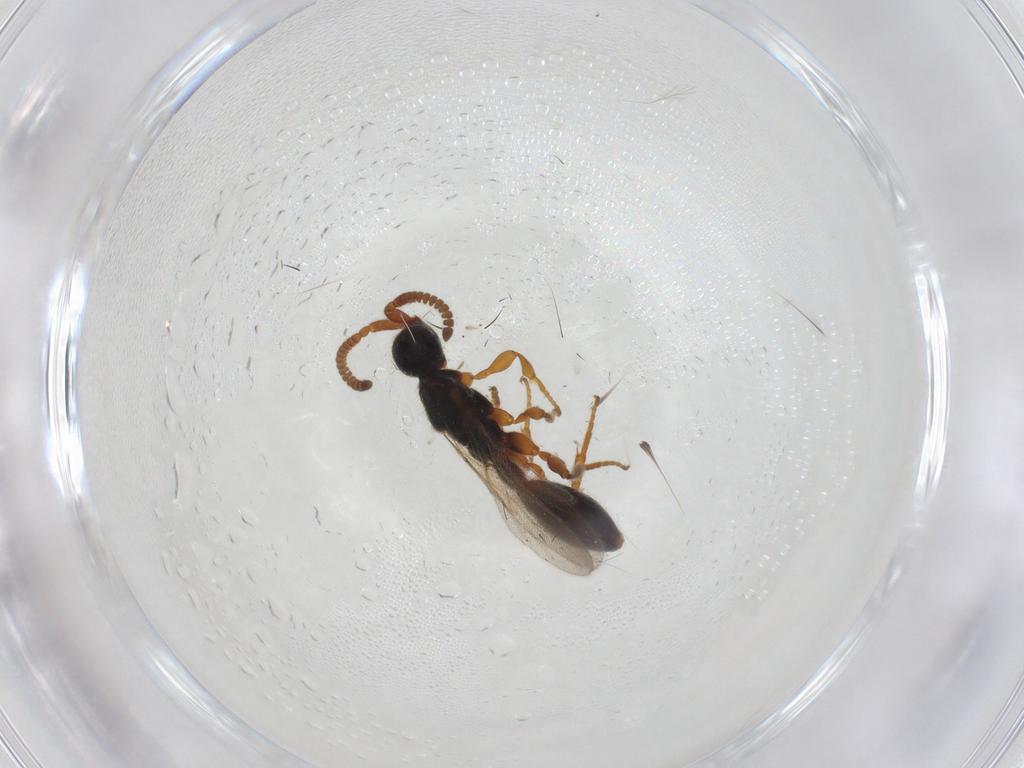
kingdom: Animalia
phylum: Arthropoda
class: Insecta
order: Hymenoptera
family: Diapriidae
